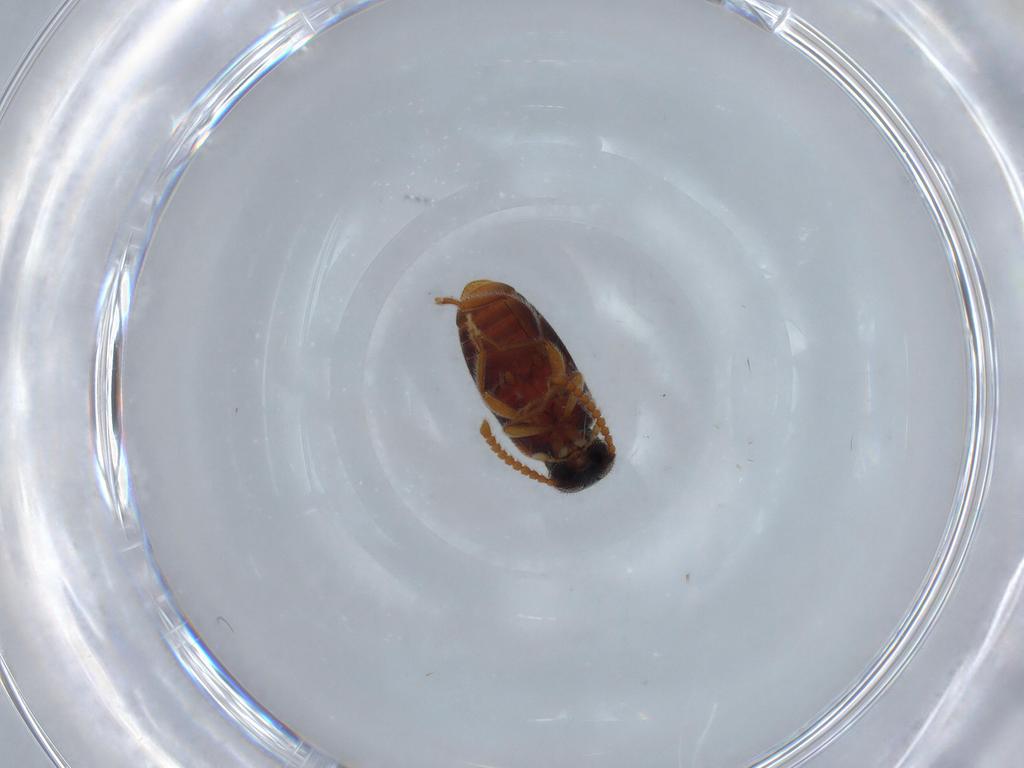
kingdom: Animalia
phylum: Arthropoda
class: Insecta
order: Coleoptera
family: Aderidae
